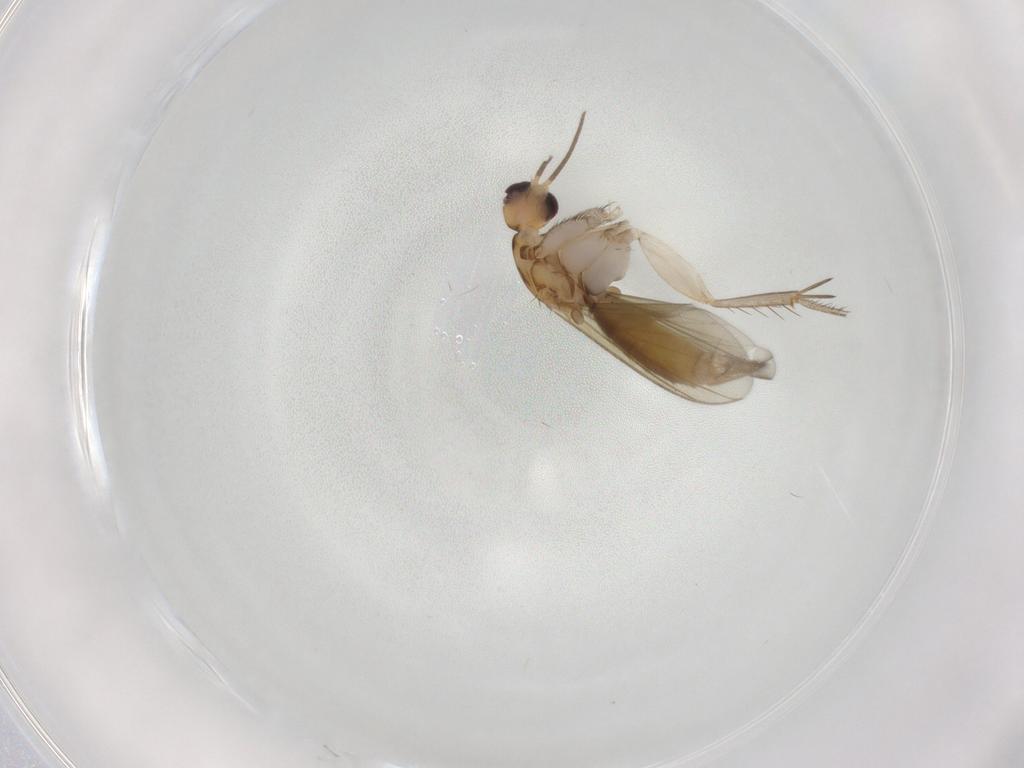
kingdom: Animalia
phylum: Arthropoda
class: Insecta
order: Diptera
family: Mycetophilidae
